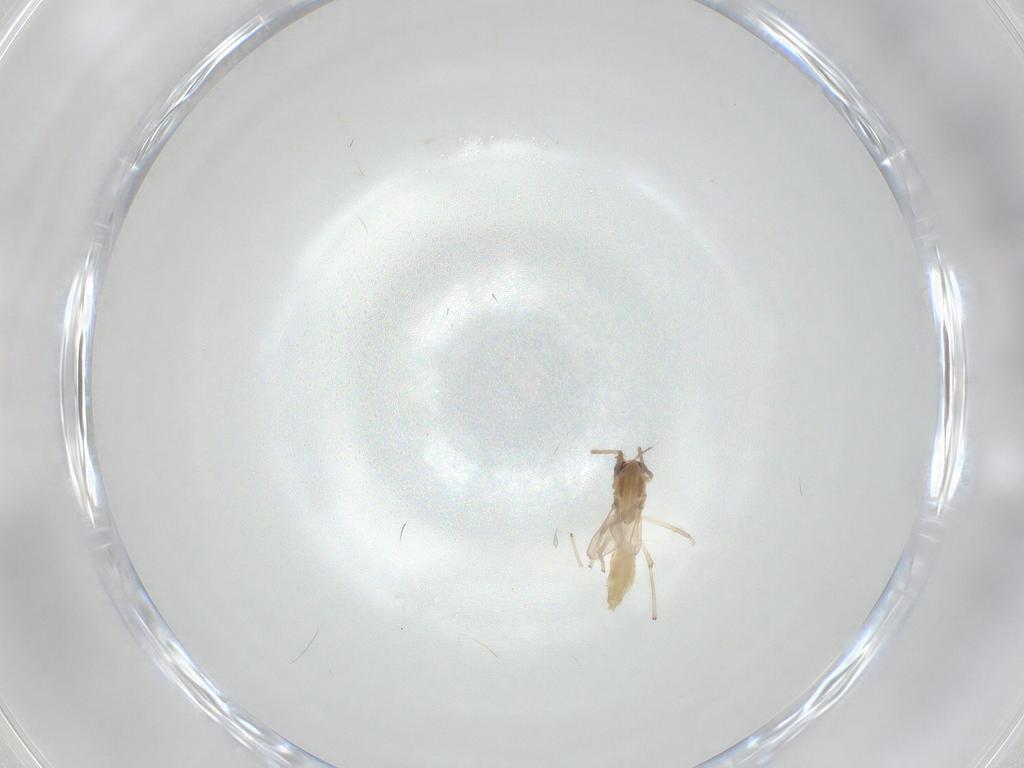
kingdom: Animalia
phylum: Arthropoda
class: Insecta
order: Diptera
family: Chironomidae
